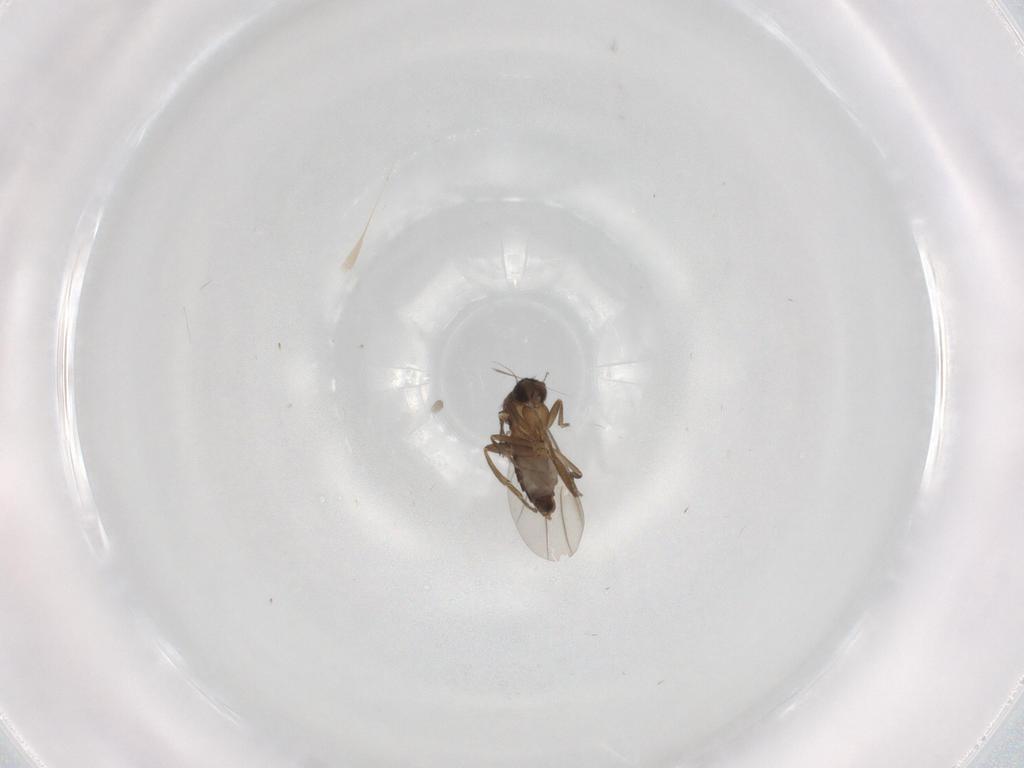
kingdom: Animalia
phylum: Arthropoda
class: Insecta
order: Diptera
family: Phoridae
